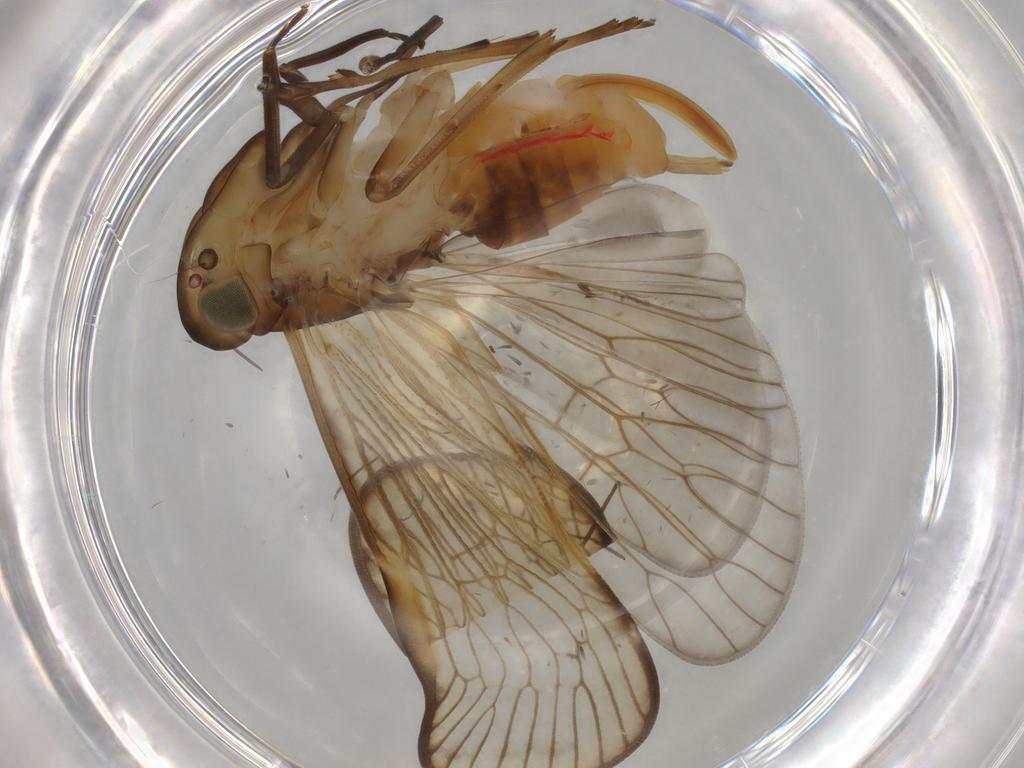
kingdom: Animalia
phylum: Arthropoda
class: Insecta
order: Hemiptera
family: Cixiidae
